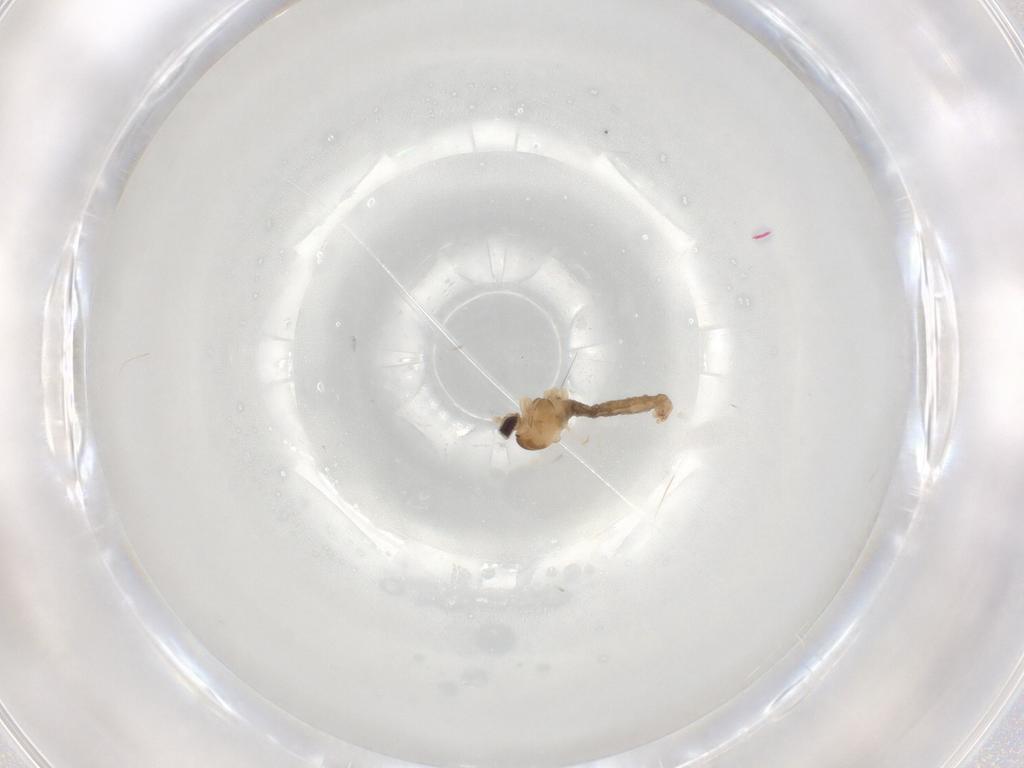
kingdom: Animalia
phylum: Arthropoda
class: Insecta
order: Diptera
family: Cecidomyiidae
